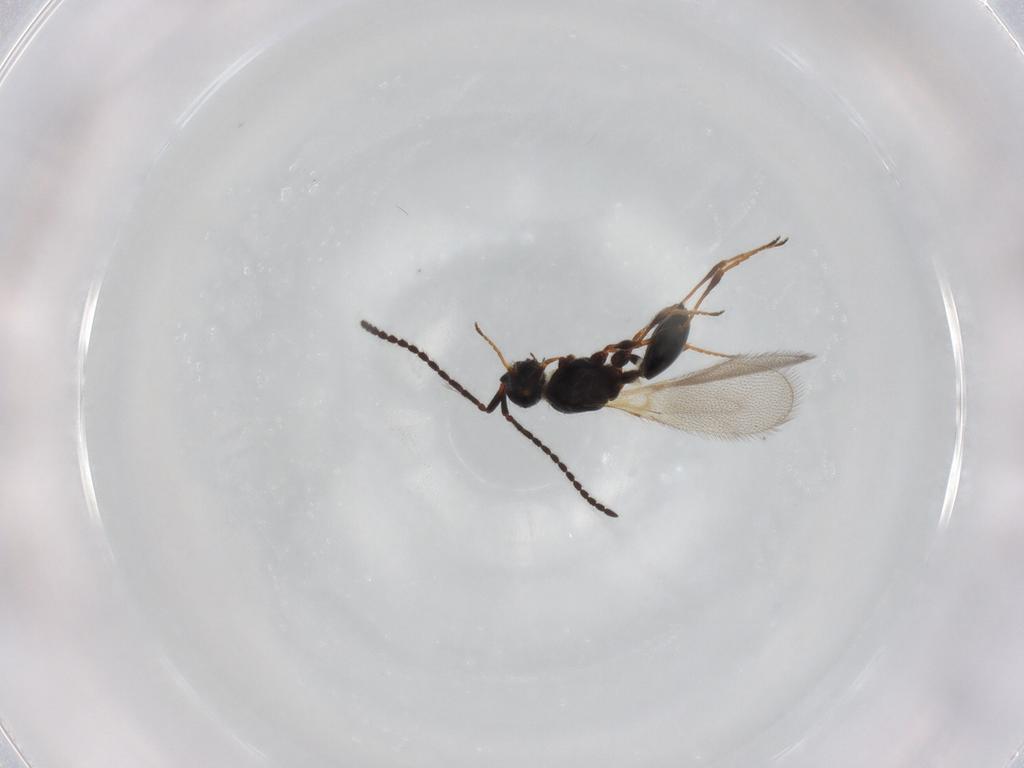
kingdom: Animalia
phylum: Arthropoda
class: Insecta
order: Hymenoptera
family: Diapriidae
